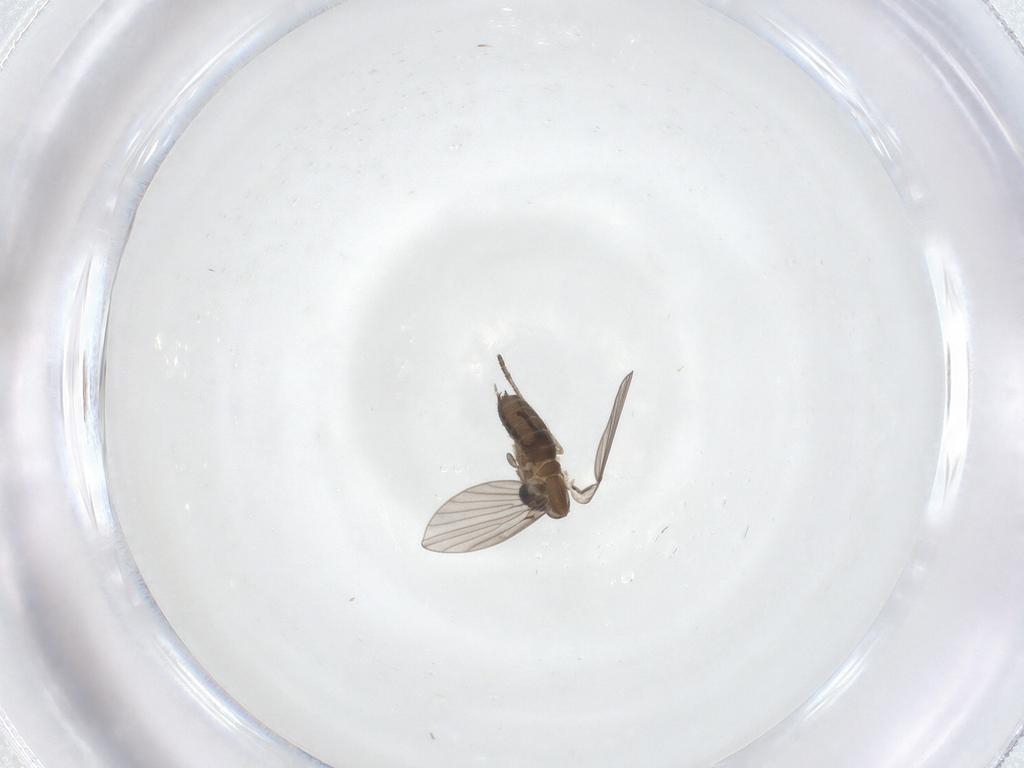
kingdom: Animalia
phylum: Arthropoda
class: Insecta
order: Diptera
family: Psychodidae
